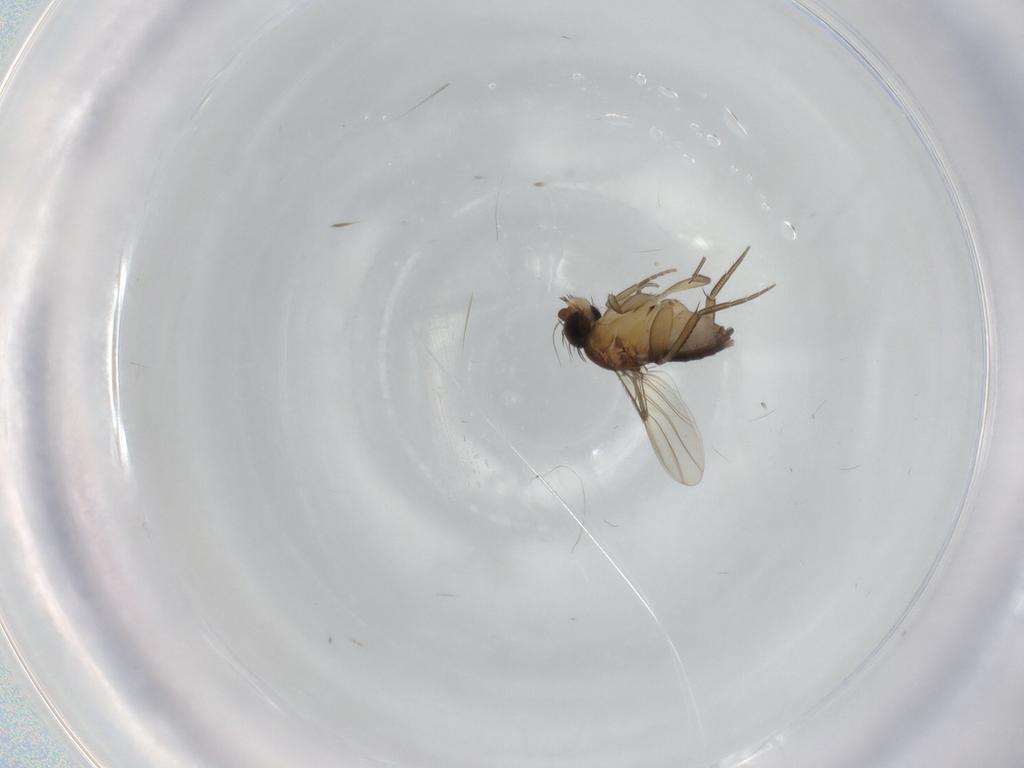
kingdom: Animalia
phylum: Arthropoda
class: Insecta
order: Diptera
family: Phoridae
